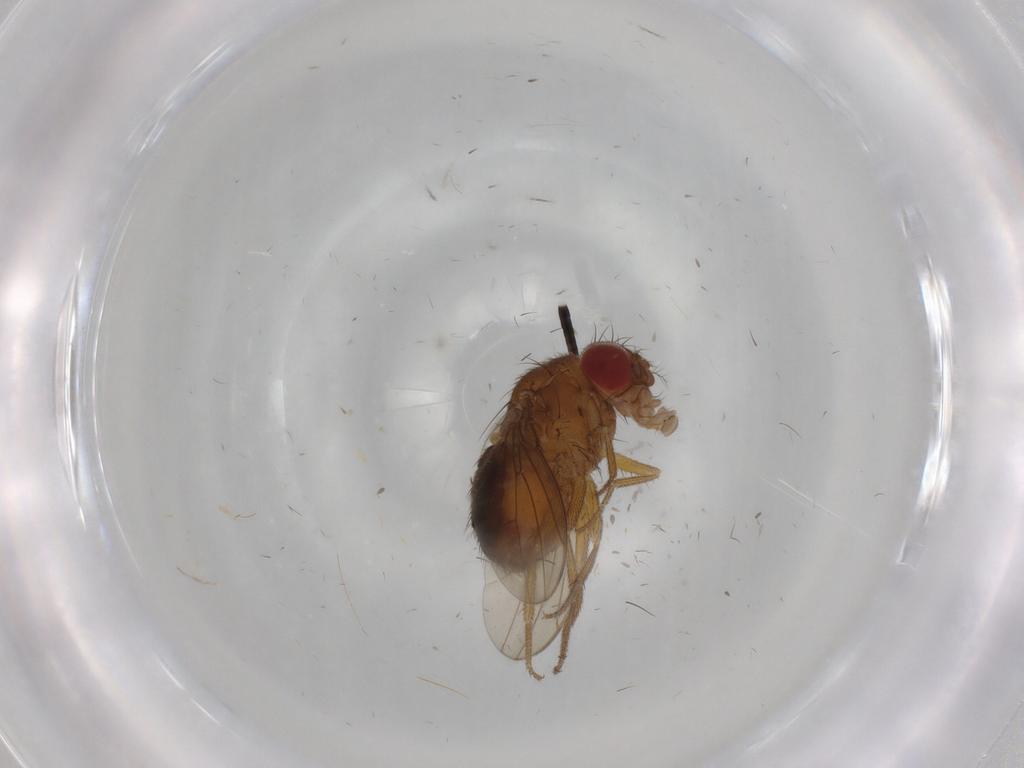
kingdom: Animalia
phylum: Arthropoda
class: Insecta
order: Diptera
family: Drosophilidae
